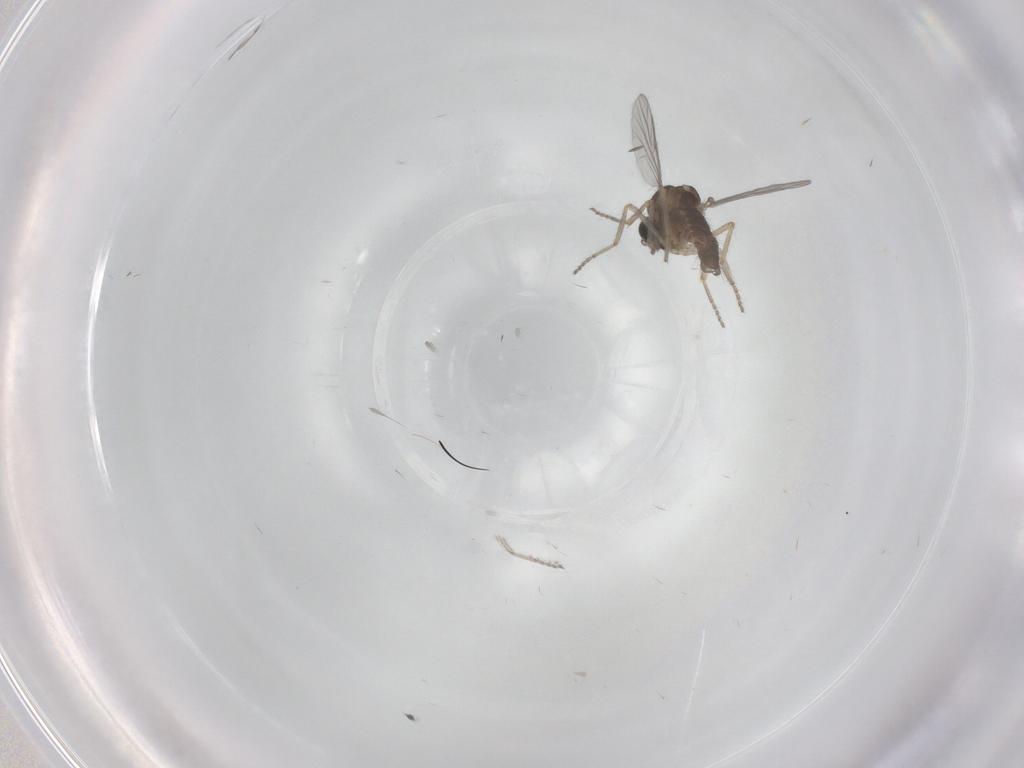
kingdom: Animalia
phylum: Arthropoda
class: Insecta
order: Diptera
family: Ceratopogonidae
